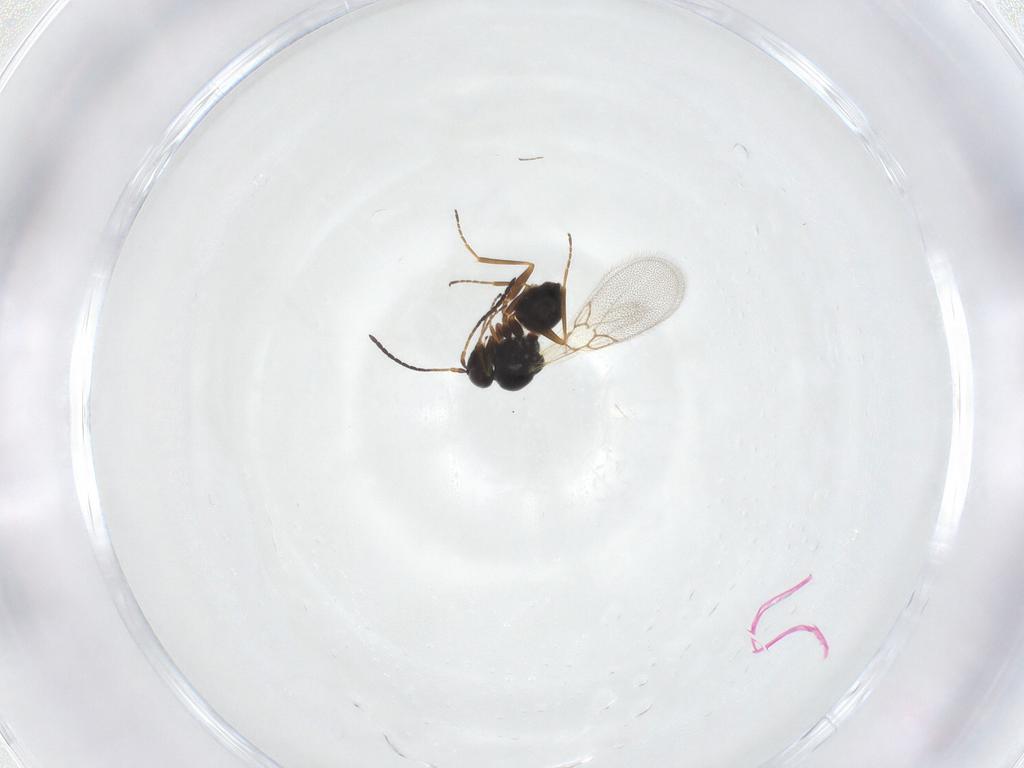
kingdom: Animalia
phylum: Arthropoda
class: Insecta
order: Hymenoptera
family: Figitidae
